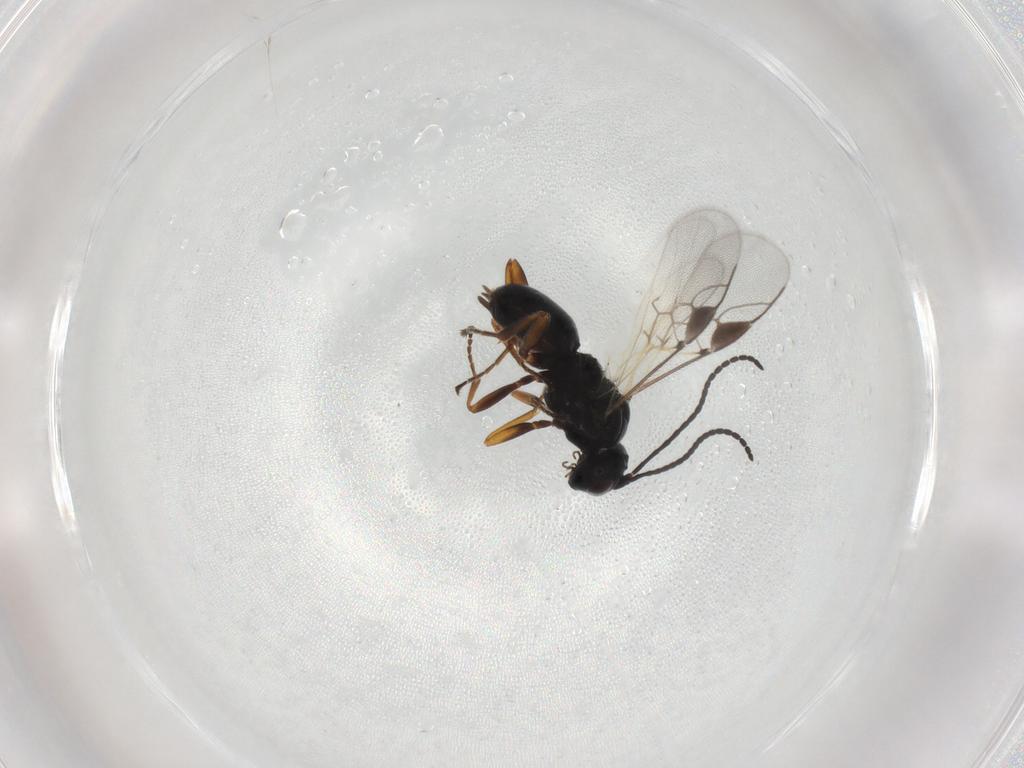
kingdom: Animalia
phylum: Arthropoda
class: Insecta
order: Hymenoptera
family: Braconidae
